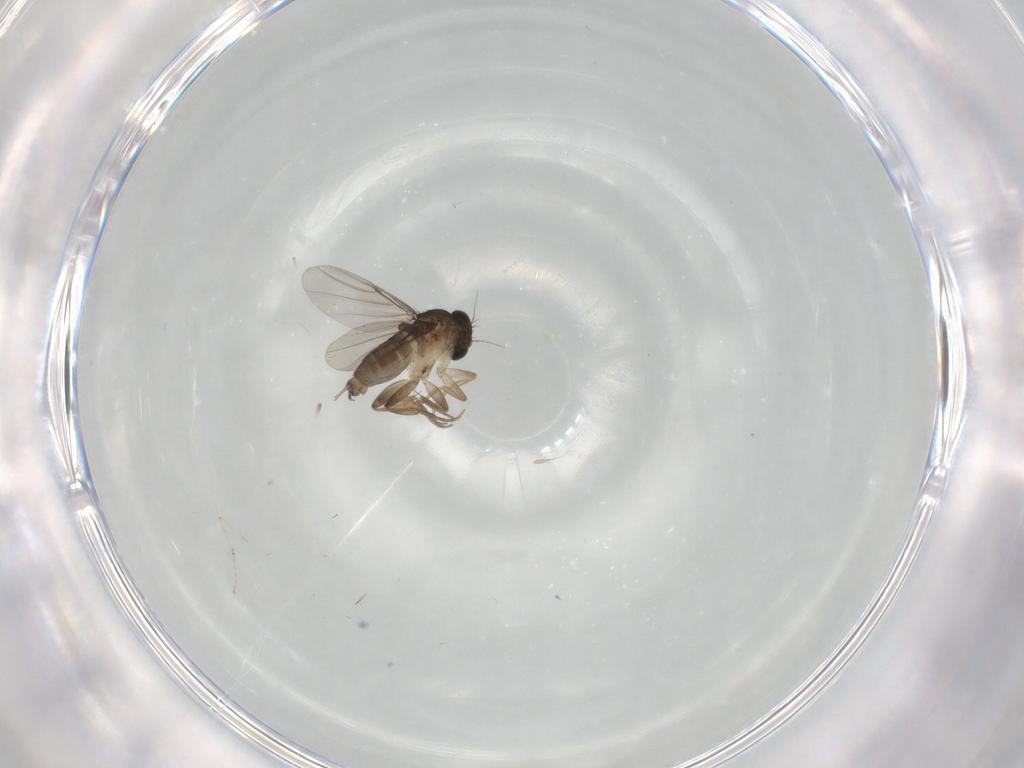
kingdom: Animalia
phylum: Arthropoda
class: Insecta
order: Diptera
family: Phoridae
